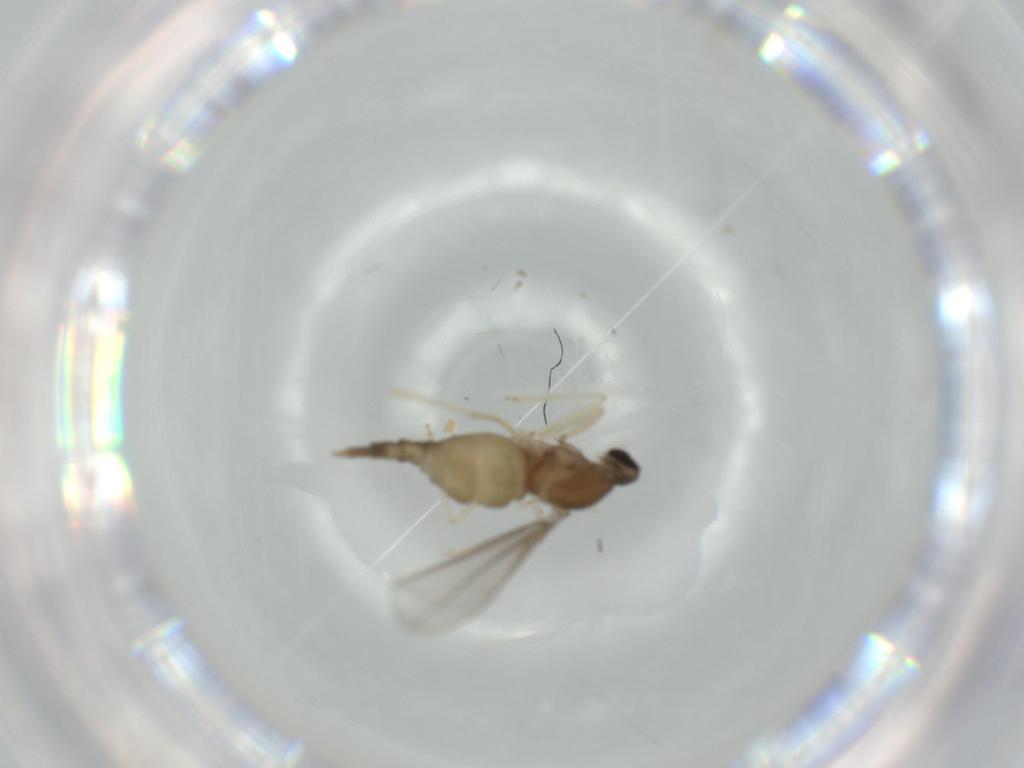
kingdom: Animalia
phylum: Arthropoda
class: Insecta
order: Diptera
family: Cecidomyiidae
